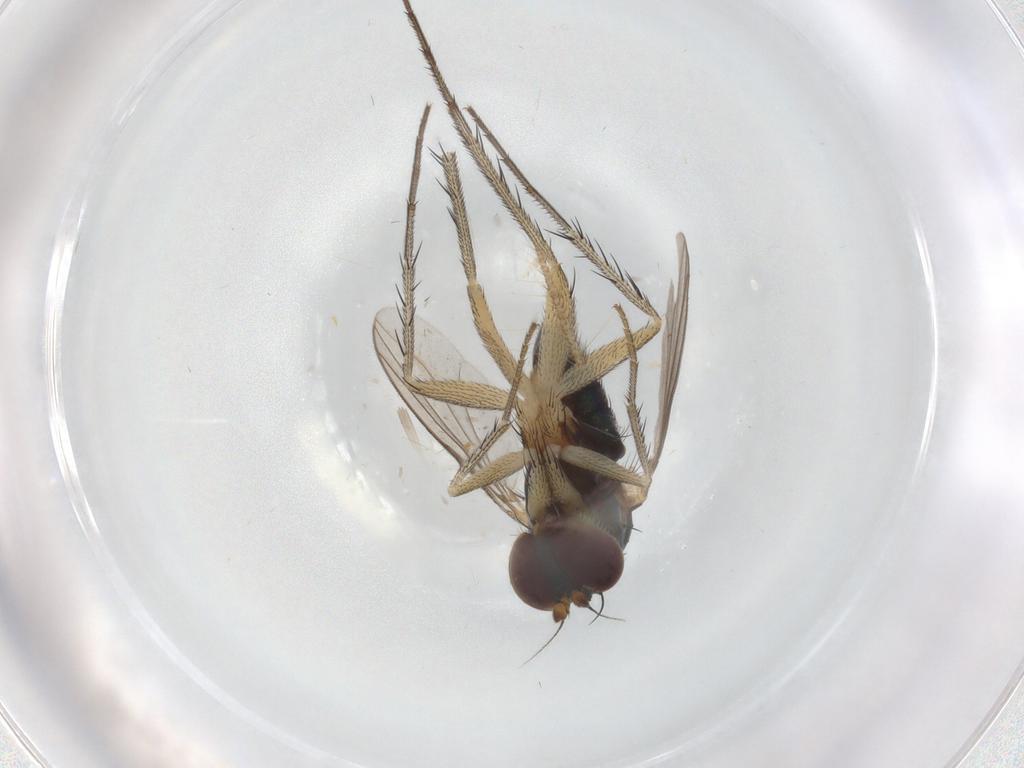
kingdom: Animalia
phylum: Arthropoda
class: Insecta
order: Diptera
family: Dolichopodidae
